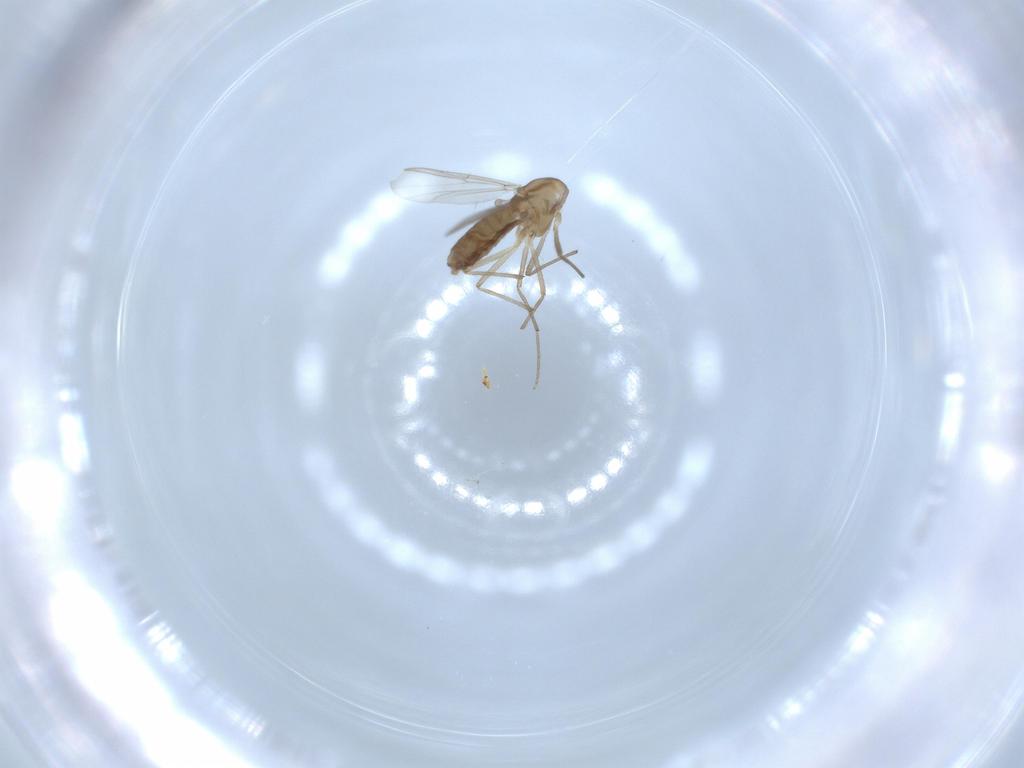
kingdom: Animalia
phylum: Arthropoda
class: Insecta
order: Diptera
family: Chironomidae
